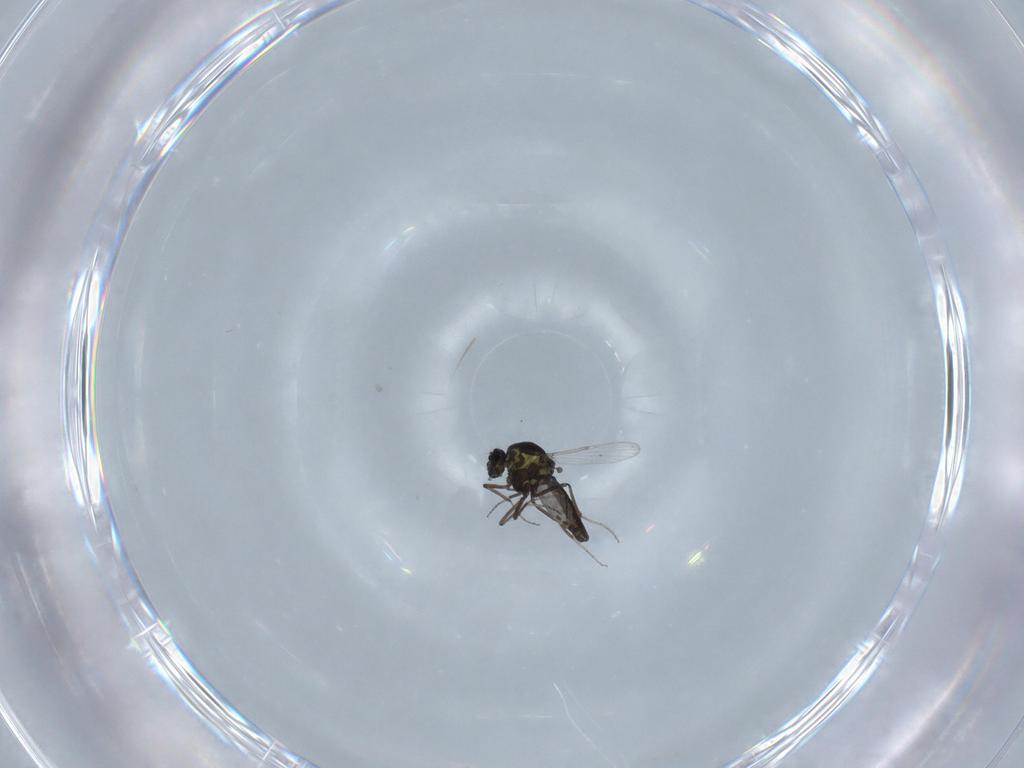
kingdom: Animalia
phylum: Arthropoda
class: Insecta
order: Diptera
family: Ceratopogonidae
